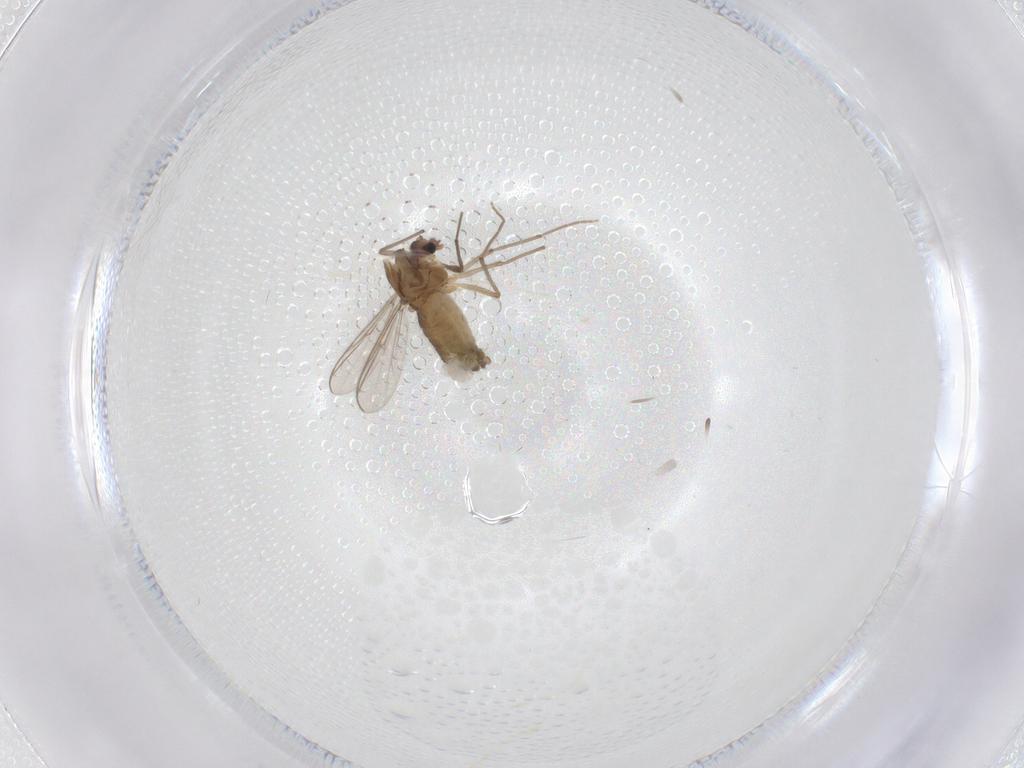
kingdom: Animalia
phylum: Arthropoda
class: Insecta
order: Diptera
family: Chironomidae
